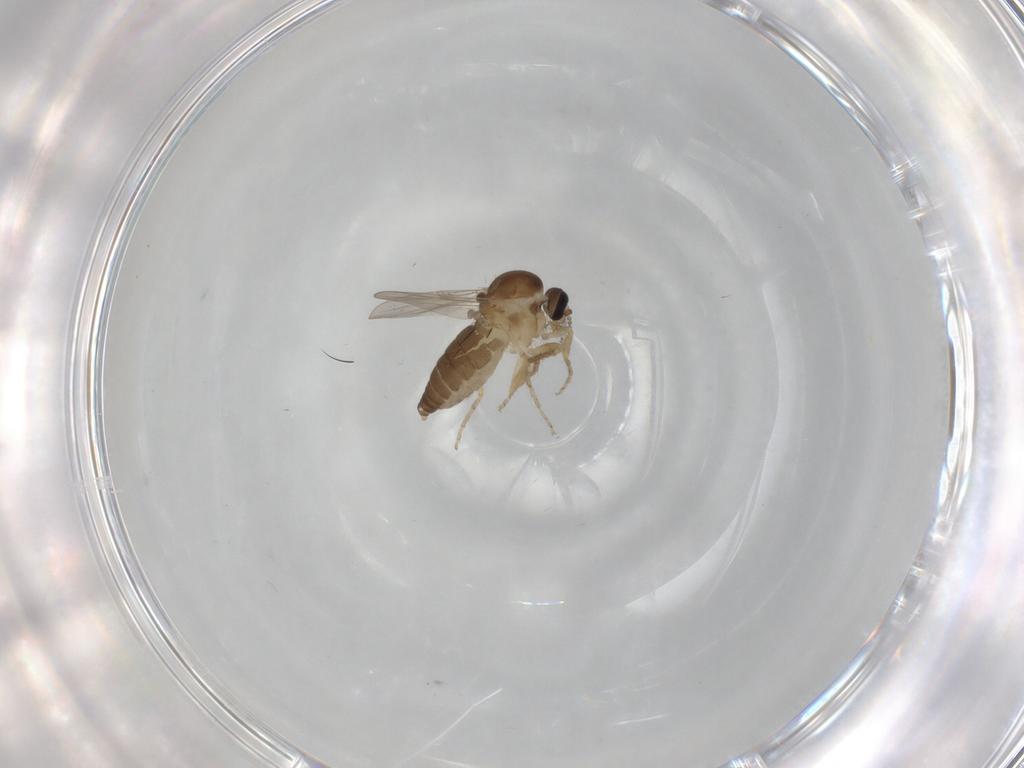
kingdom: Animalia
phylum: Arthropoda
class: Insecta
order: Diptera
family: Ceratopogonidae
